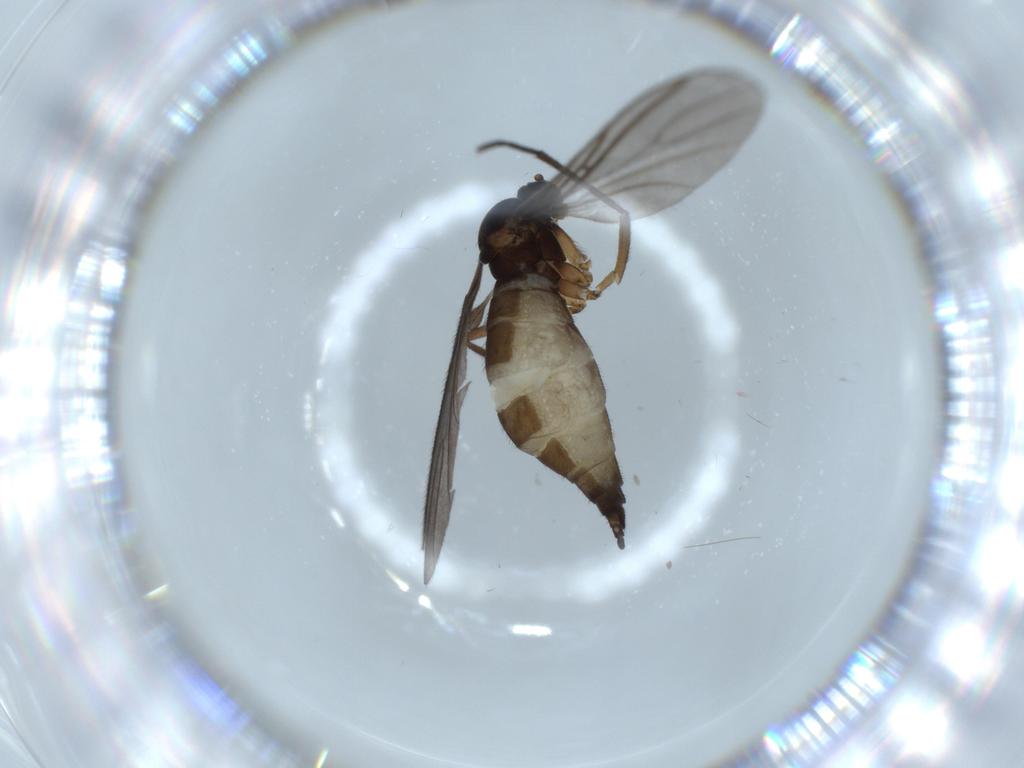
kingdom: Animalia
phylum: Arthropoda
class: Insecta
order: Diptera
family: Sciaridae
